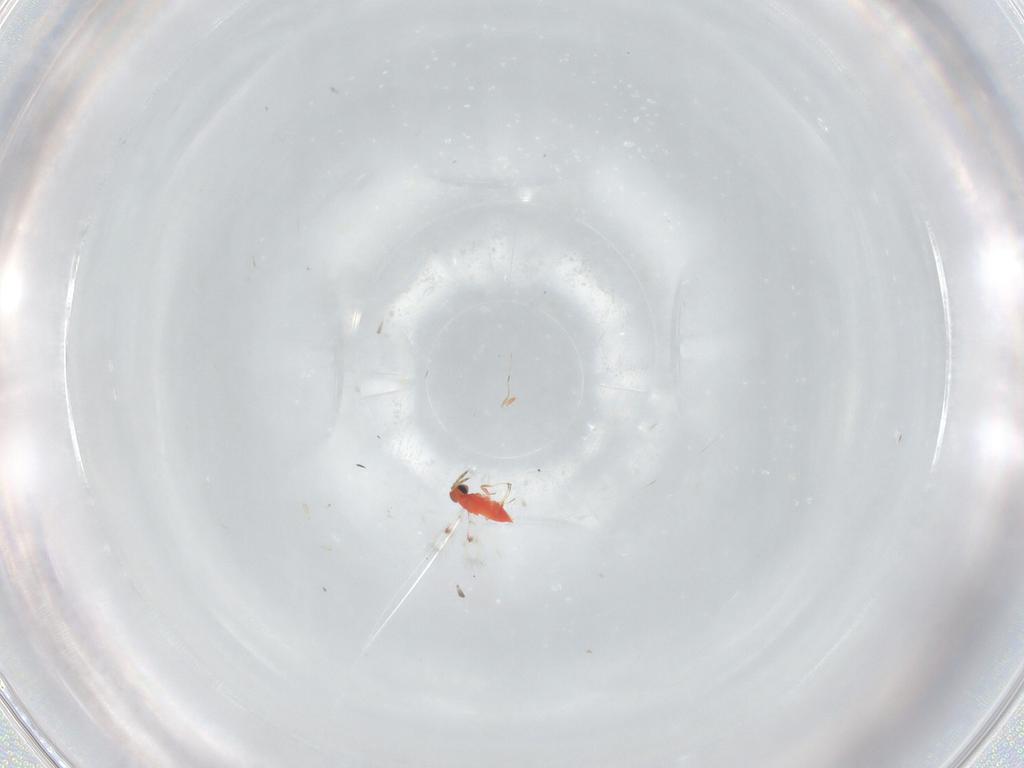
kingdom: Animalia
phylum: Arthropoda
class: Insecta
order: Hymenoptera
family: Trichogrammatidae
